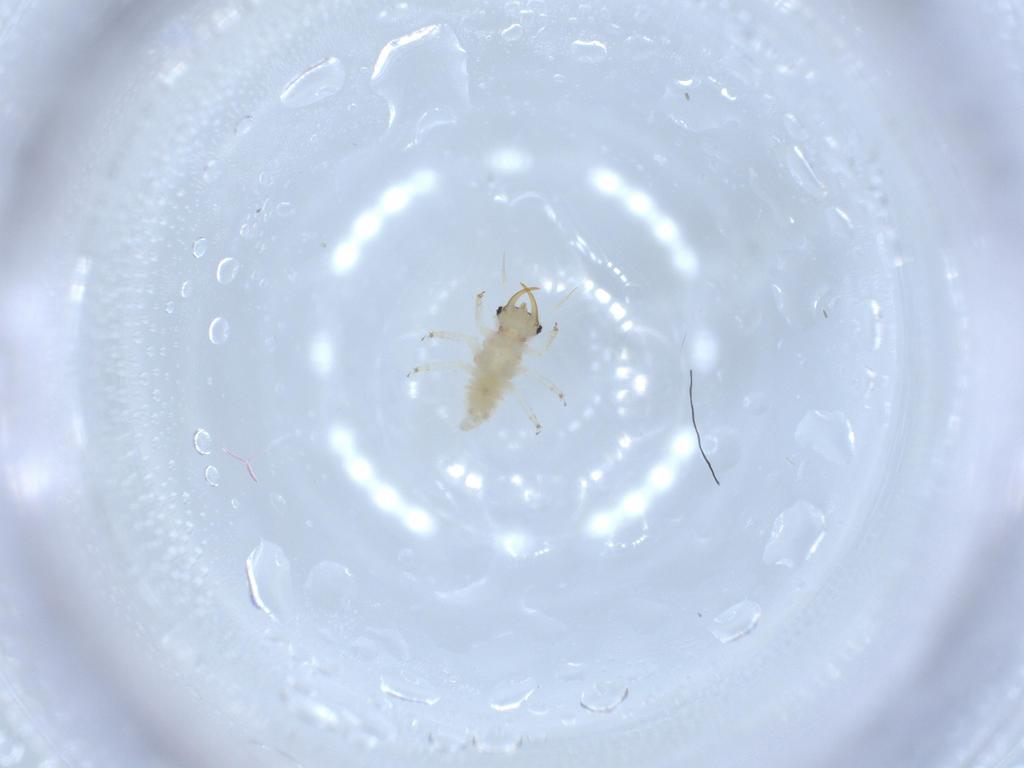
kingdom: Animalia
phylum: Arthropoda
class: Insecta
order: Neuroptera
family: Chrysopidae
